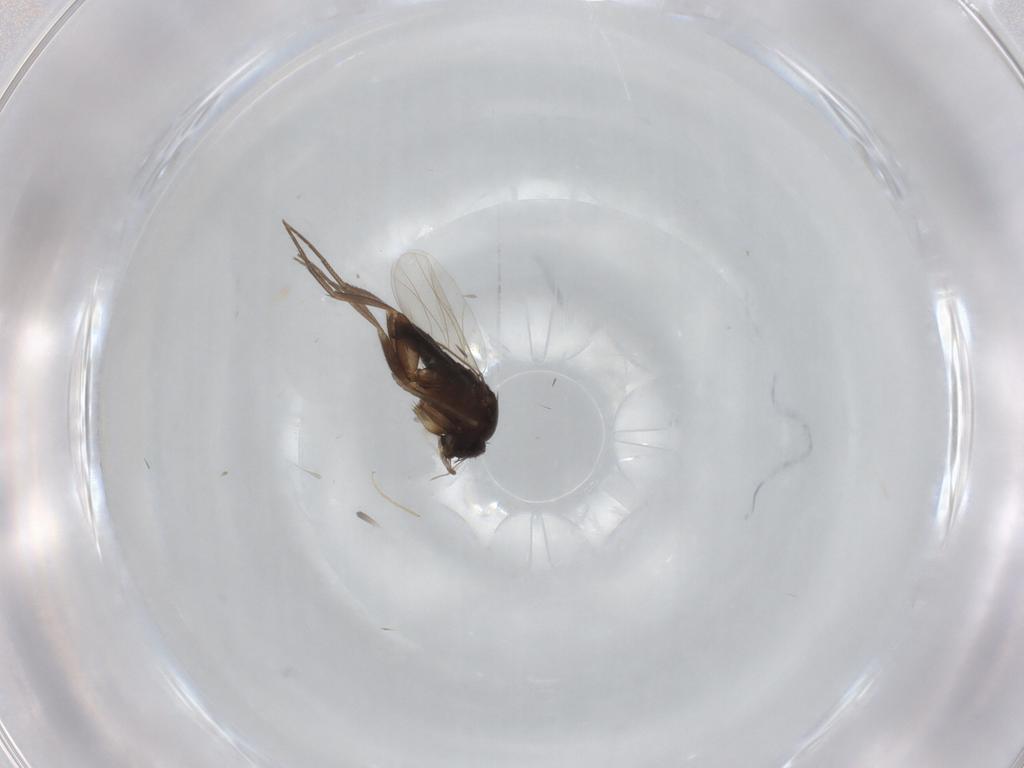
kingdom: Animalia
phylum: Arthropoda
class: Insecta
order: Diptera
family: Phoridae
